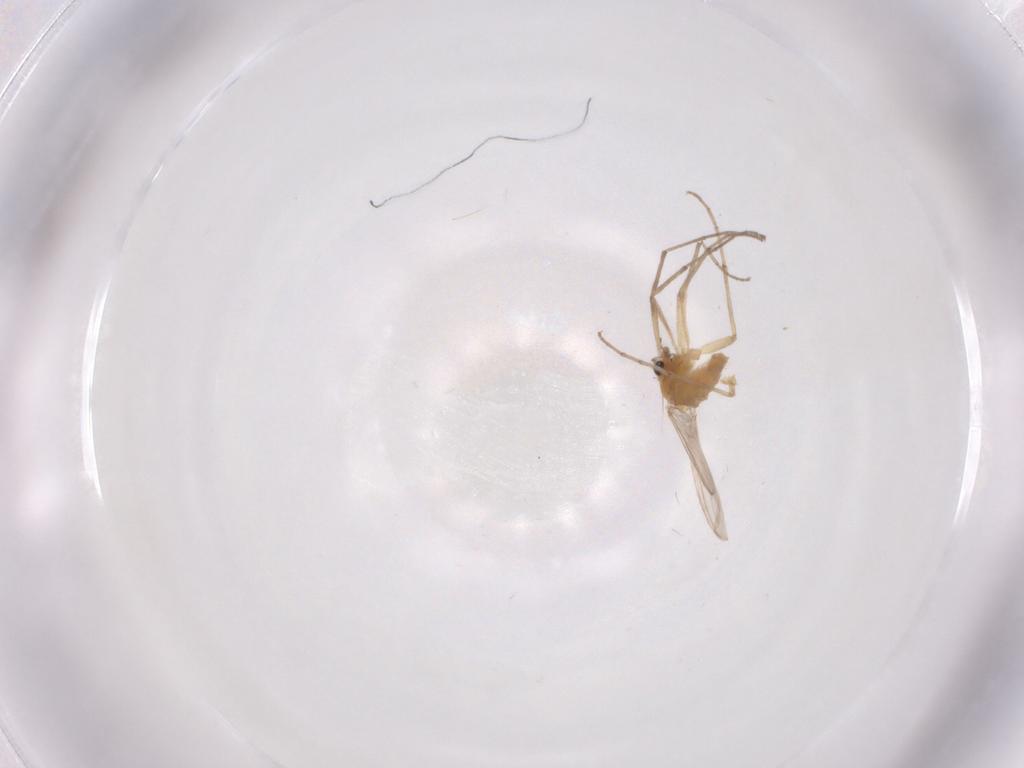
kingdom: Animalia
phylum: Arthropoda
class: Insecta
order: Diptera
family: Chironomidae
